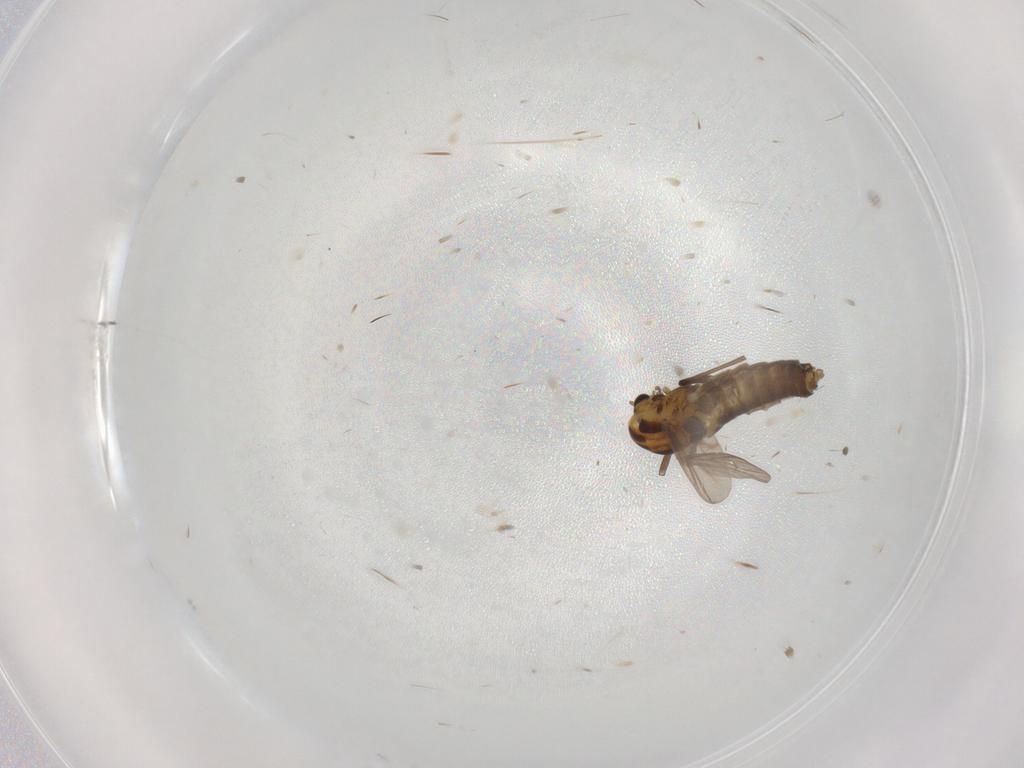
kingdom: Animalia
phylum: Arthropoda
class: Insecta
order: Diptera
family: Chironomidae
